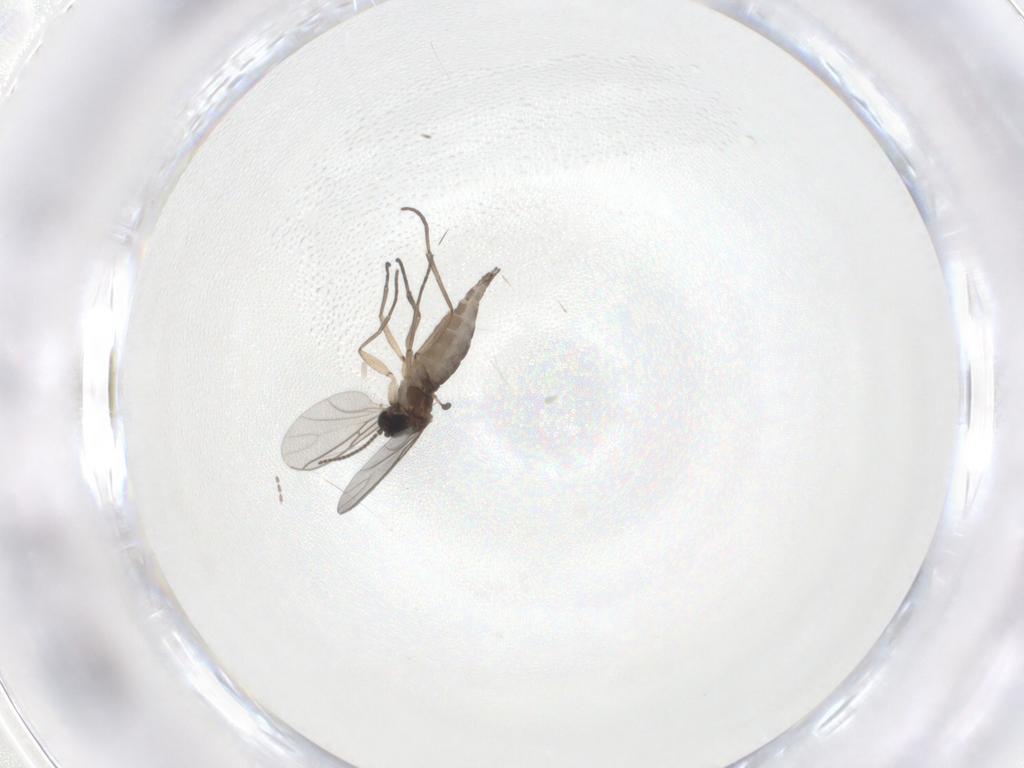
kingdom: Animalia
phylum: Arthropoda
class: Insecta
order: Diptera
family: Sciaridae
